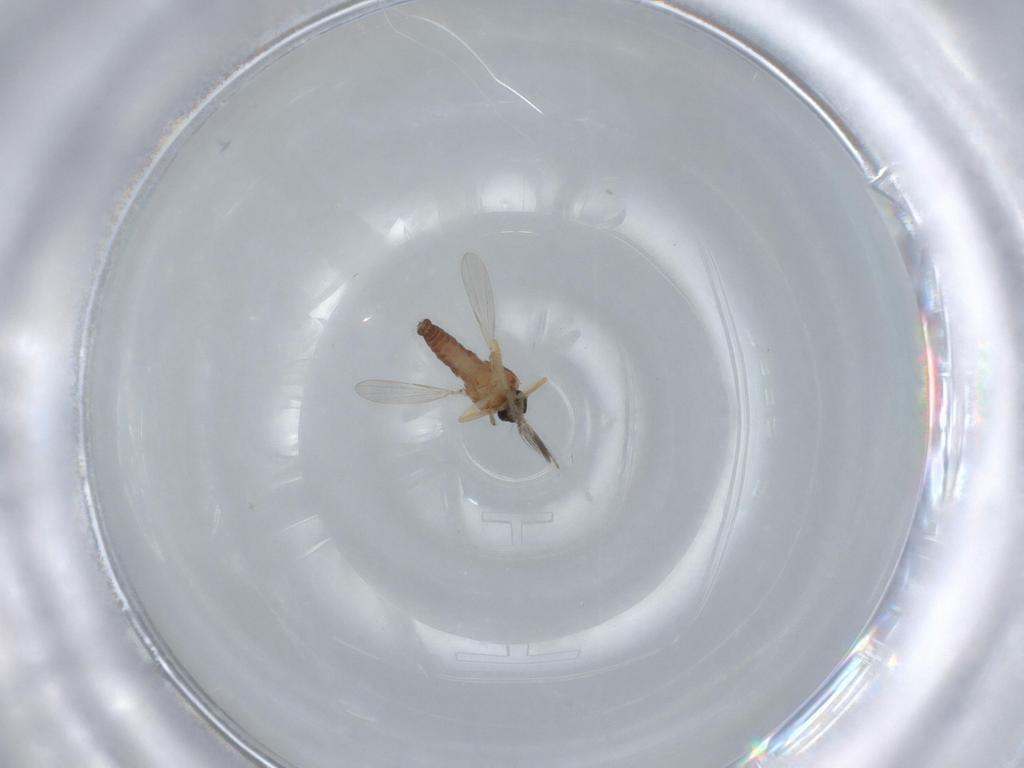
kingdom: Animalia
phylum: Arthropoda
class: Insecta
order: Diptera
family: Ceratopogonidae
